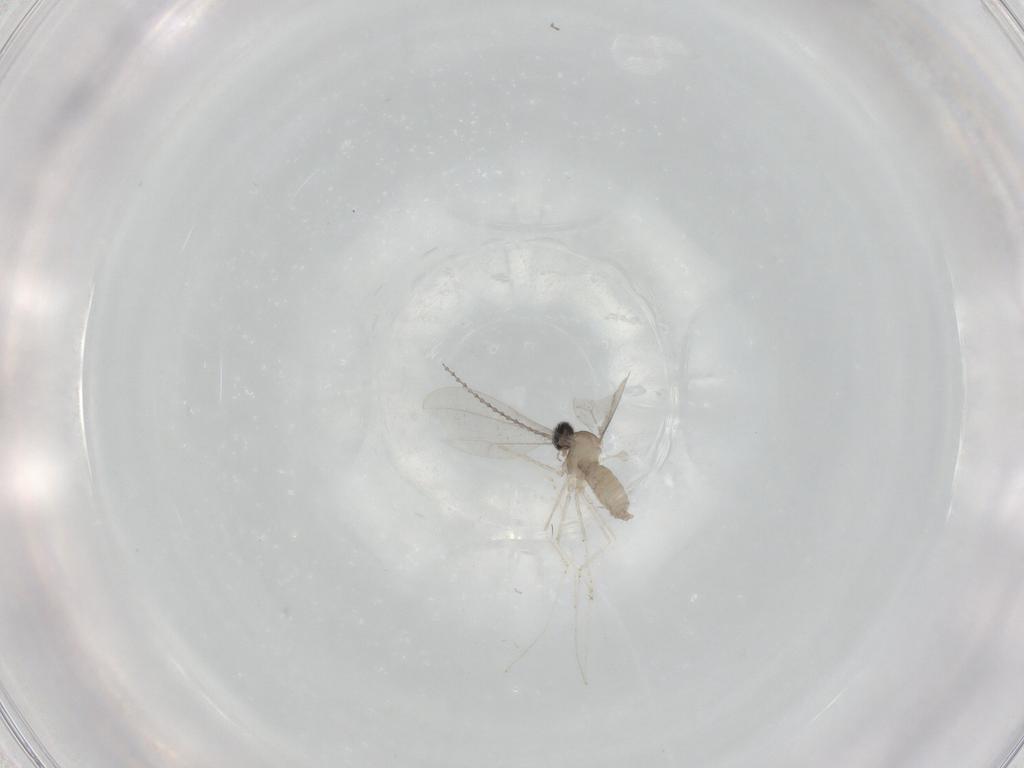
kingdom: Animalia
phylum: Arthropoda
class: Insecta
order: Diptera
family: Cecidomyiidae
